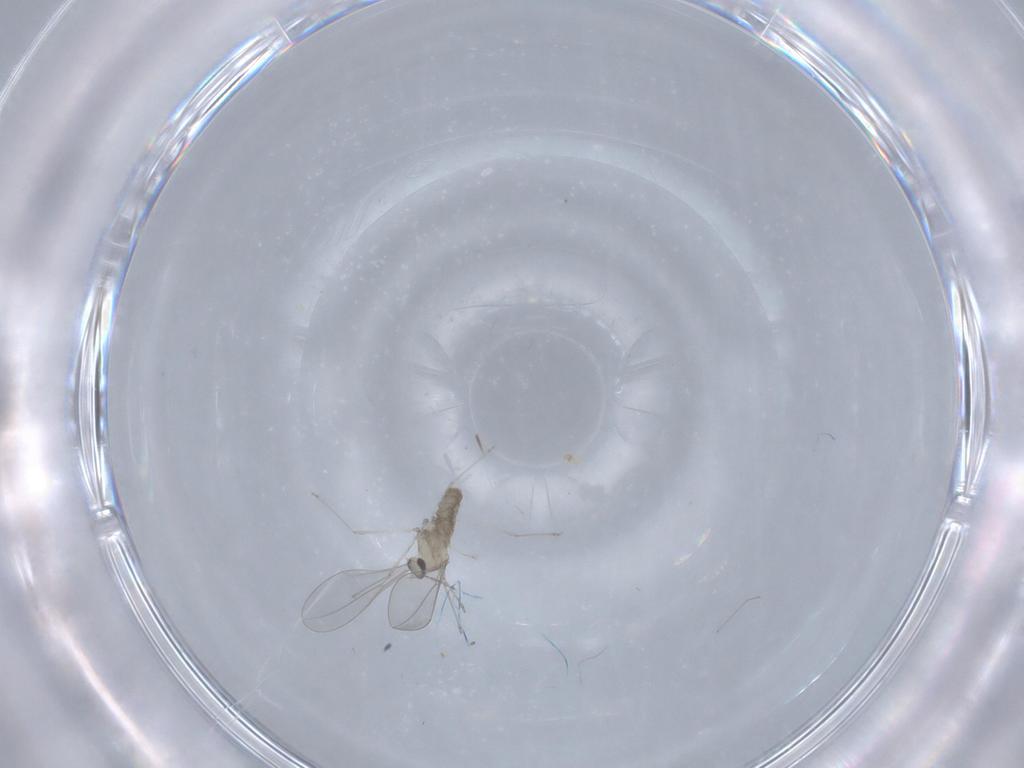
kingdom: Animalia
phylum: Arthropoda
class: Insecta
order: Diptera
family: Cecidomyiidae
